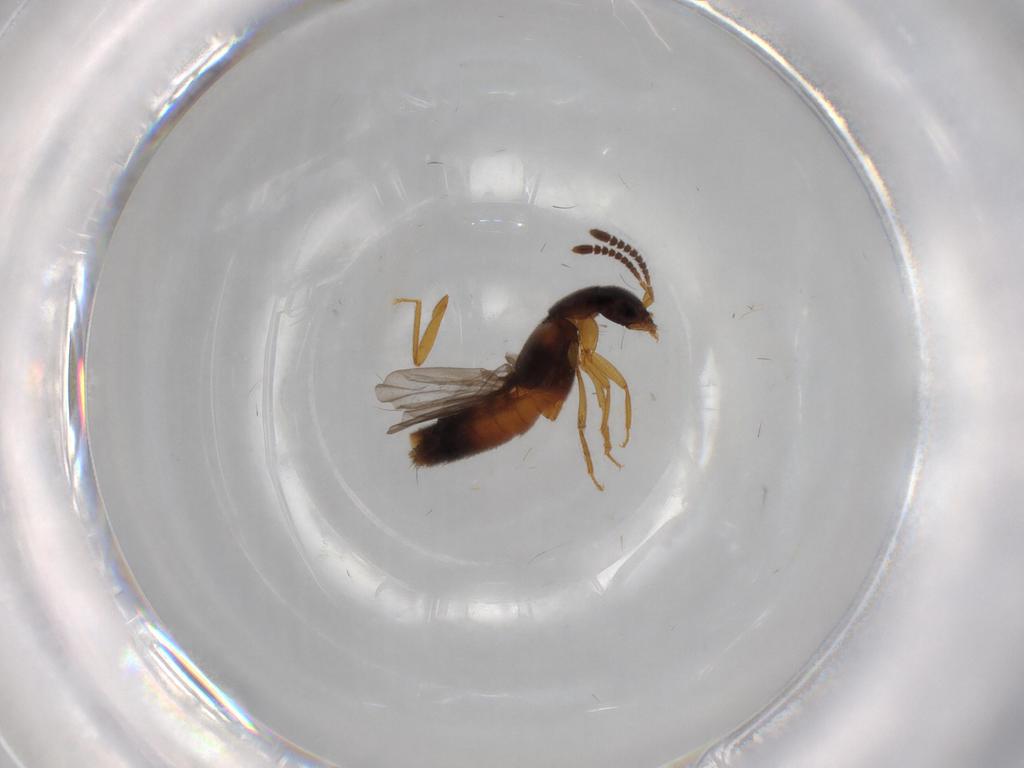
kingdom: Animalia
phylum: Arthropoda
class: Insecta
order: Coleoptera
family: Staphylinidae
